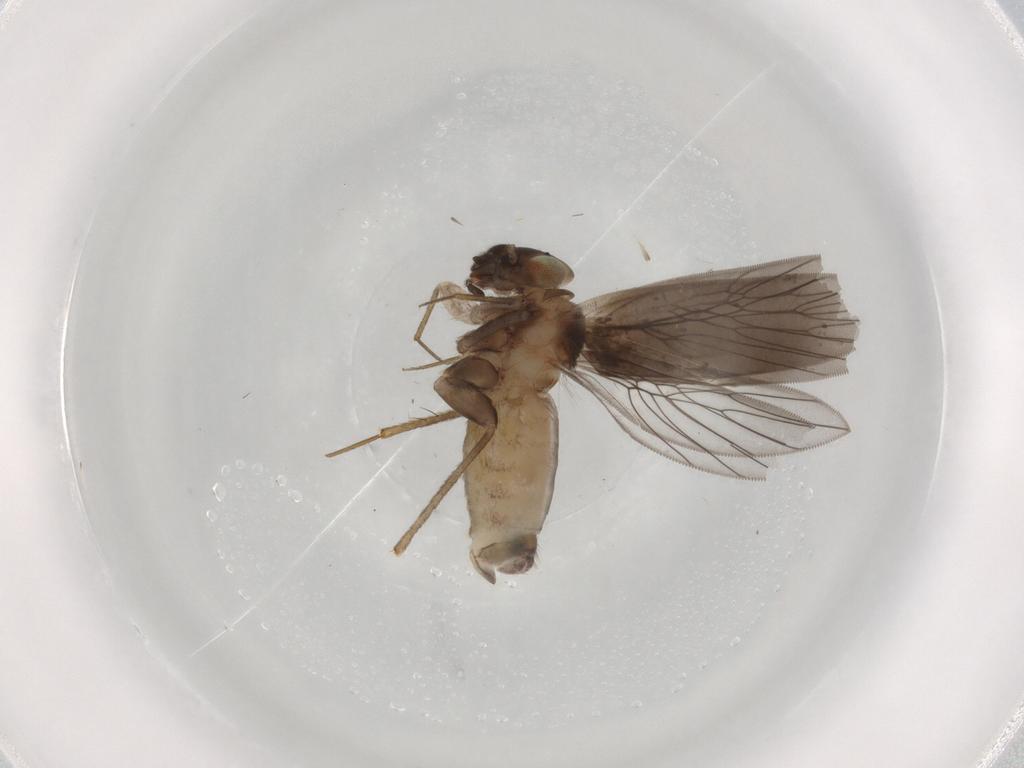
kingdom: Animalia
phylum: Arthropoda
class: Insecta
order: Psocodea
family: Lepidopsocidae
